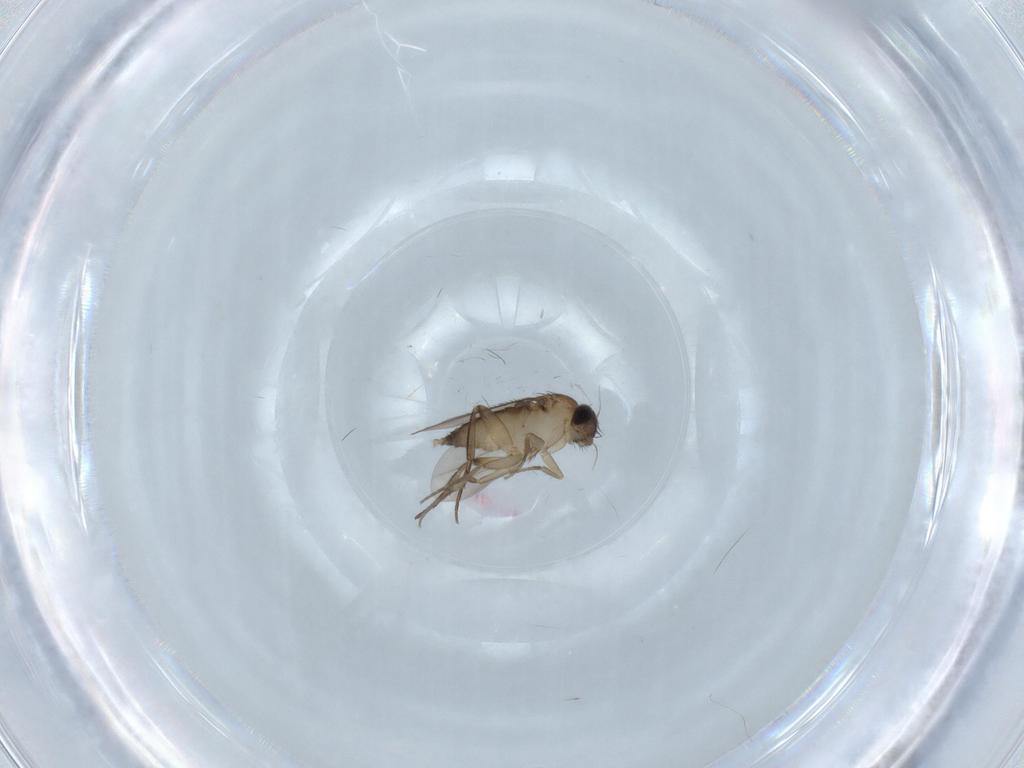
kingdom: Animalia
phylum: Arthropoda
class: Insecta
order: Diptera
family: Phoridae
